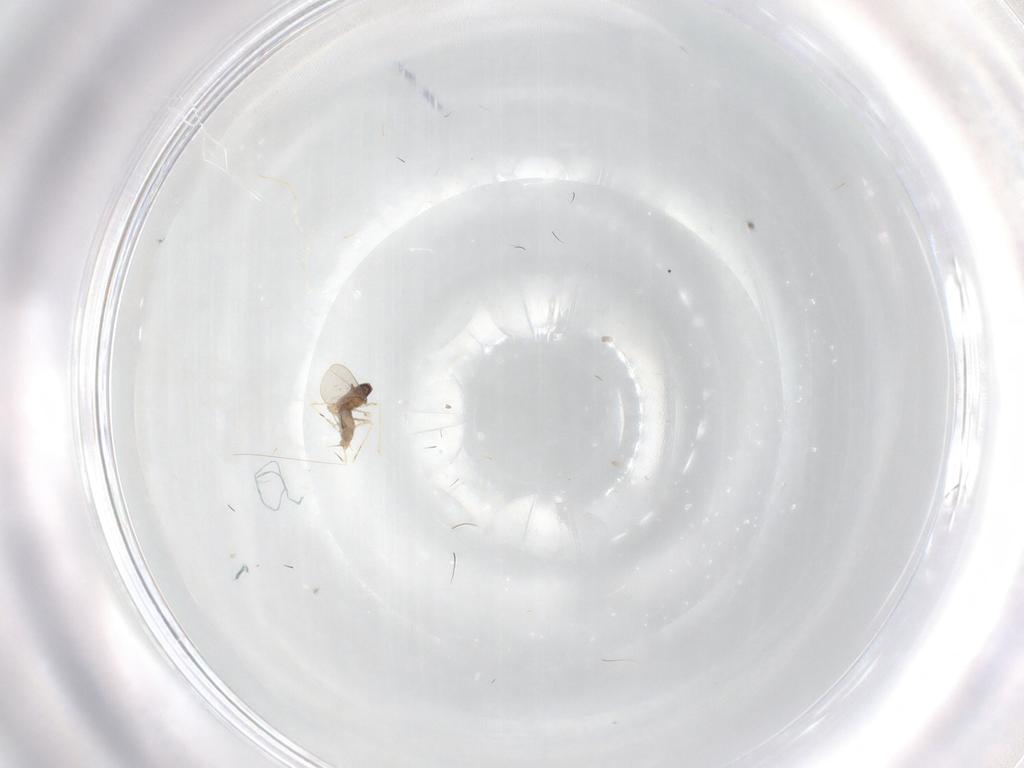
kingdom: Animalia
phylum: Arthropoda
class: Insecta
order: Diptera
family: Cecidomyiidae
